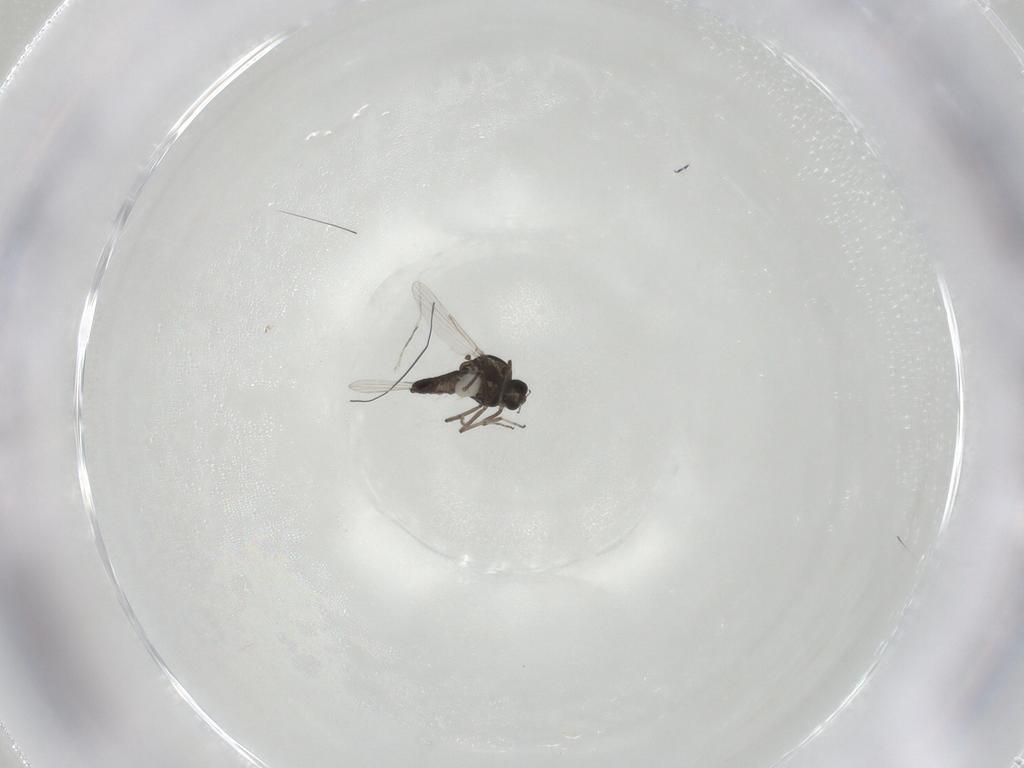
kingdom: Animalia
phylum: Arthropoda
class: Insecta
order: Diptera
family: Ceratopogonidae
